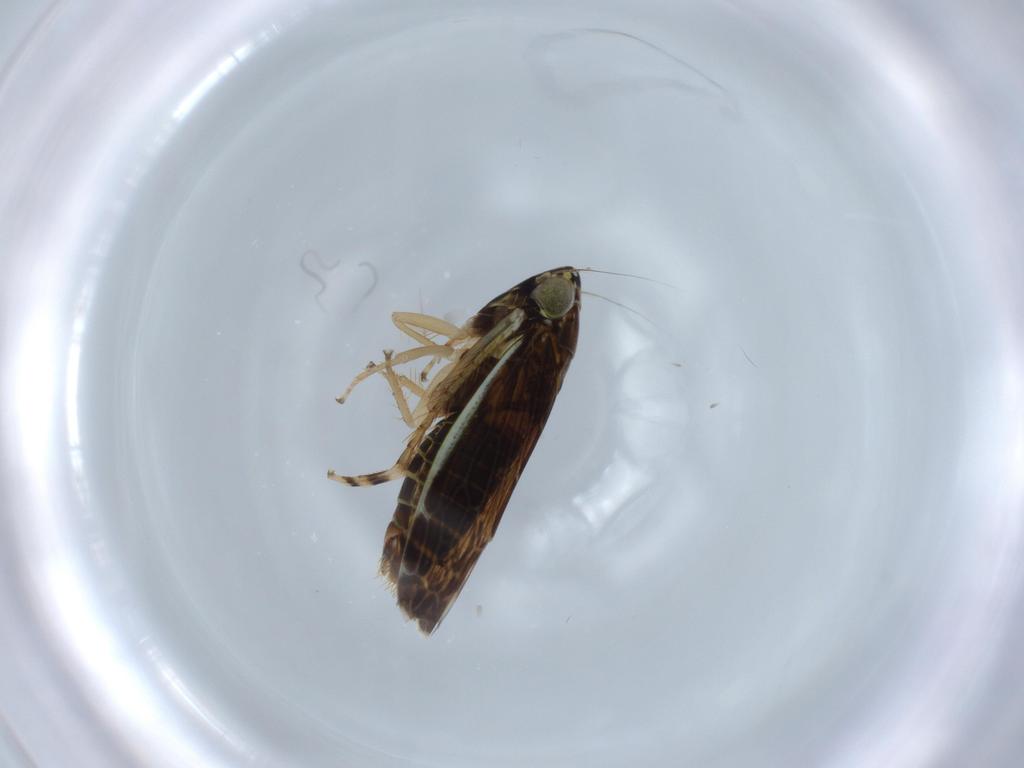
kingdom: Animalia
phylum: Arthropoda
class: Insecta
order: Hemiptera
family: Cicadellidae
